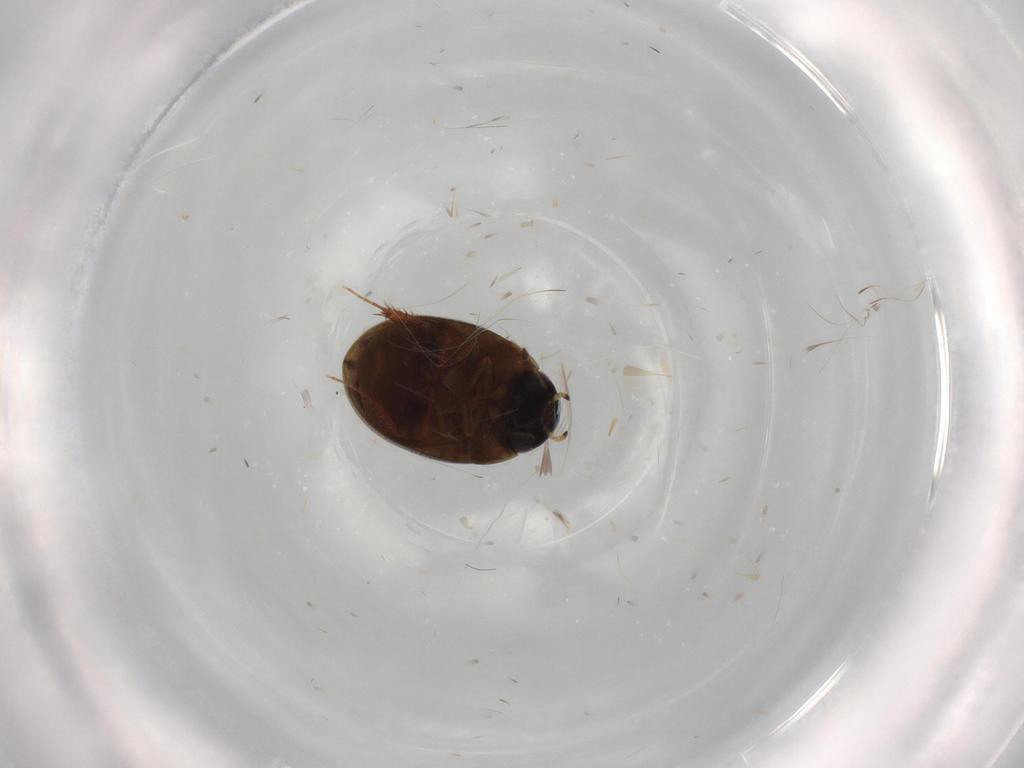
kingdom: Animalia
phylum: Arthropoda
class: Insecta
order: Coleoptera
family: Hydrophilidae
